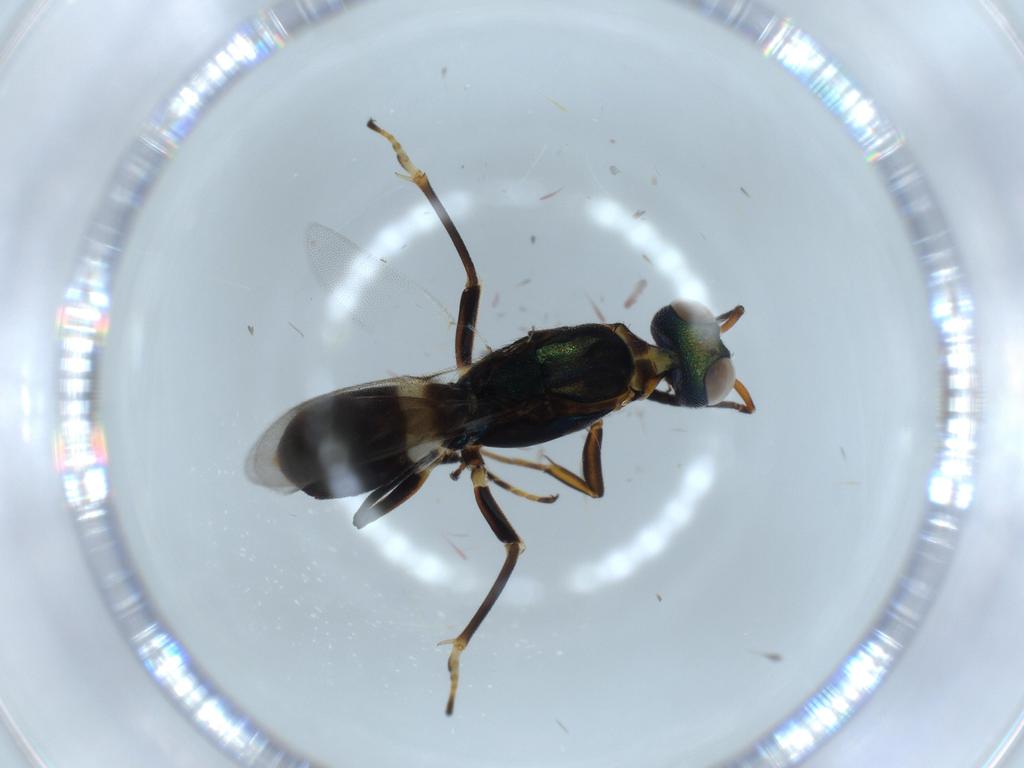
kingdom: Animalia
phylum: Arthropoda
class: Insecta
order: Hymenoptera
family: Eupelmidae
